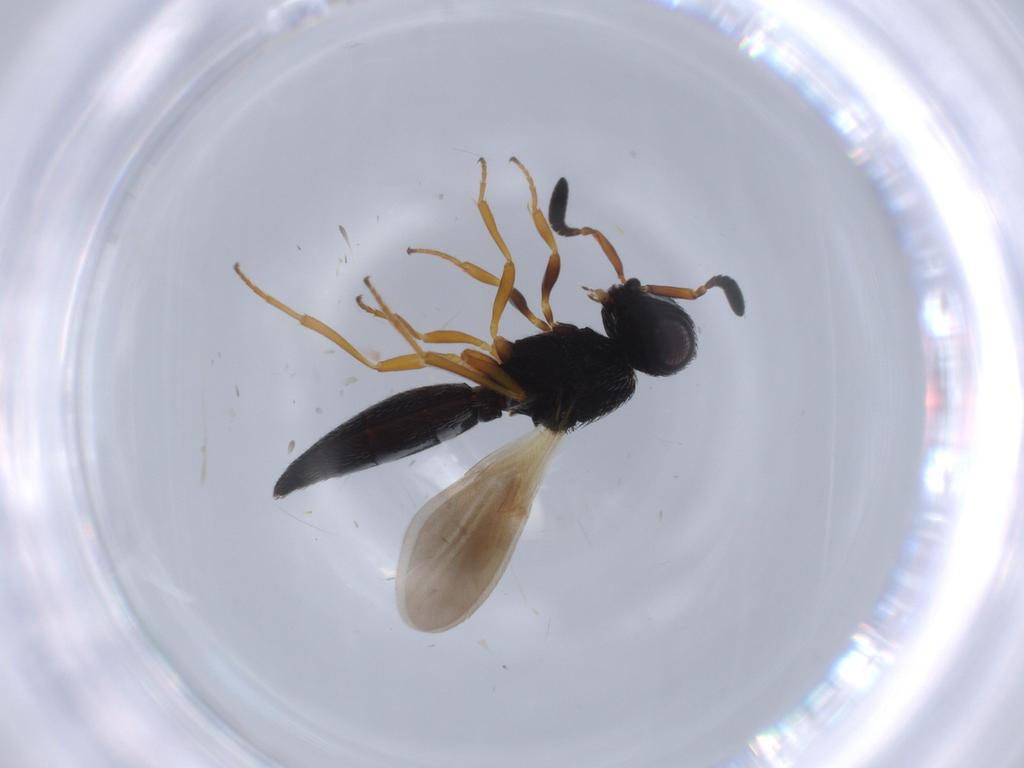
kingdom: Animalia
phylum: Arthropoda
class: Insecta
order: Hymenoptera
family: Scelionidae
